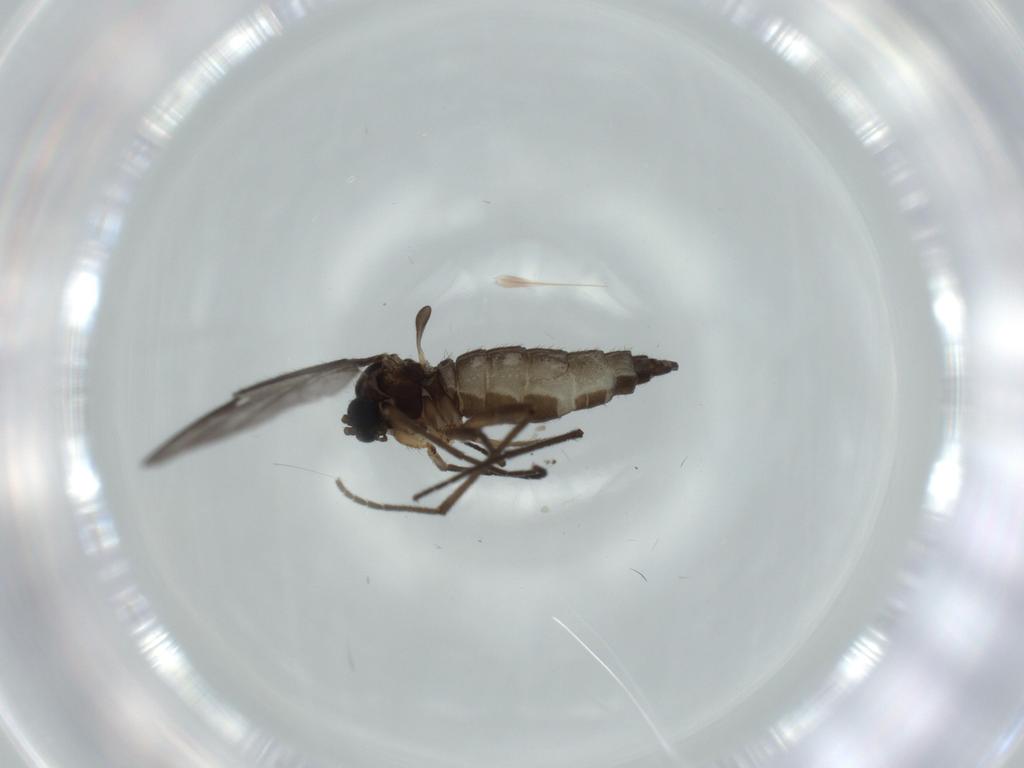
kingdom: Animalia
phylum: Arthropoda
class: Insecta
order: Diptera
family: Sciaridae
